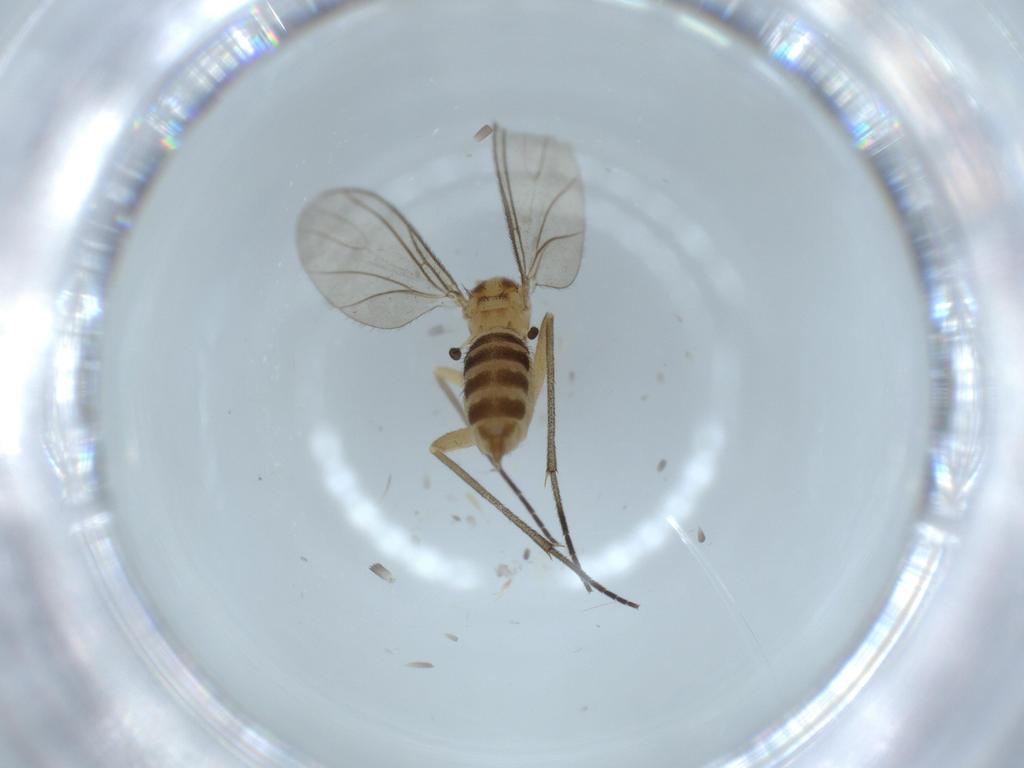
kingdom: Animalia
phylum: Arthropoda
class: Insecta
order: Diptera
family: Sciaridae
